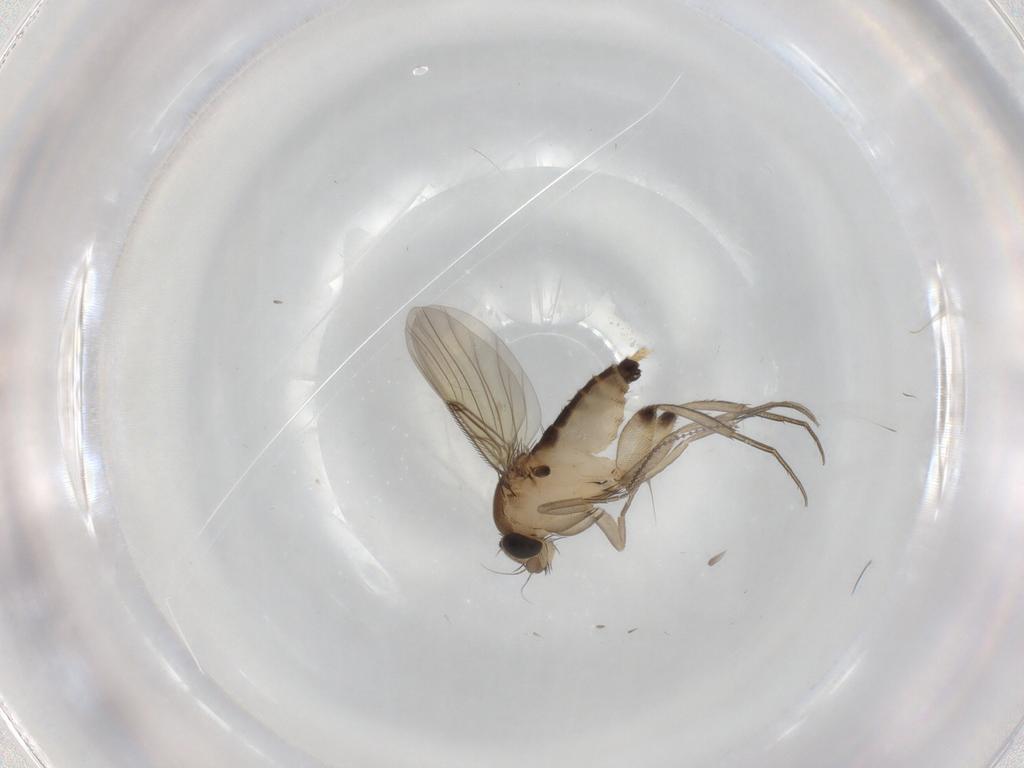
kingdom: Animalia
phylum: Arthropoda
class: Insecta
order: Diptera
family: Cecidomyiidae
